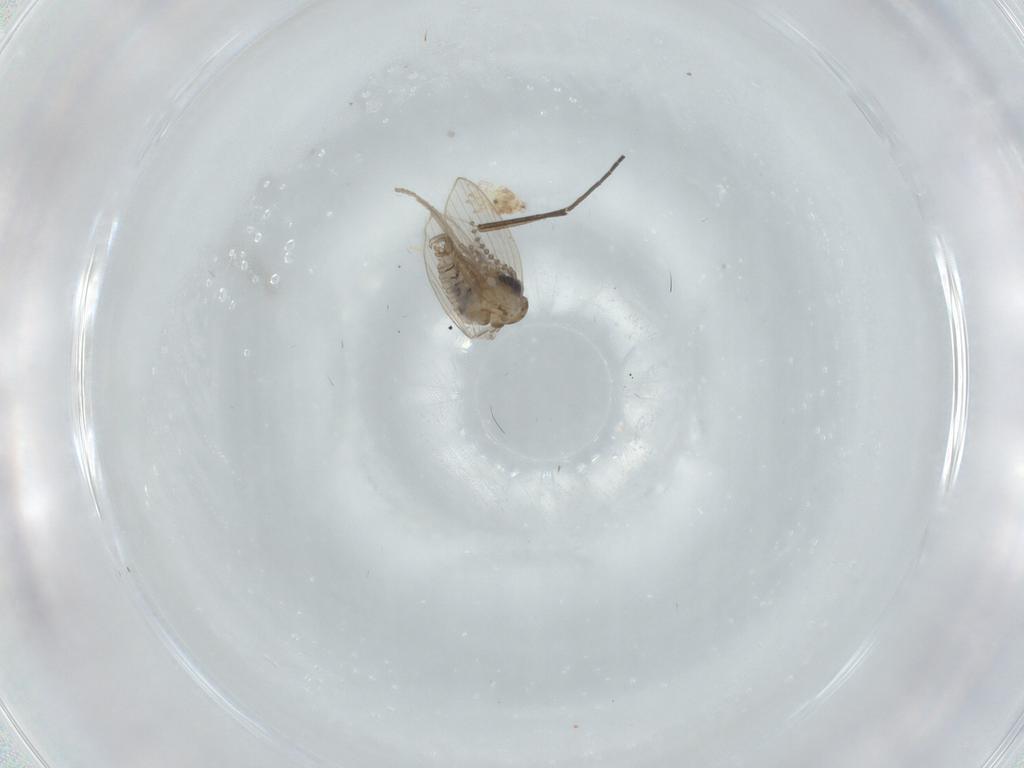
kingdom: Animalia
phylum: Arthropoda
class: Insecta
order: Diptera
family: Psychodidae
